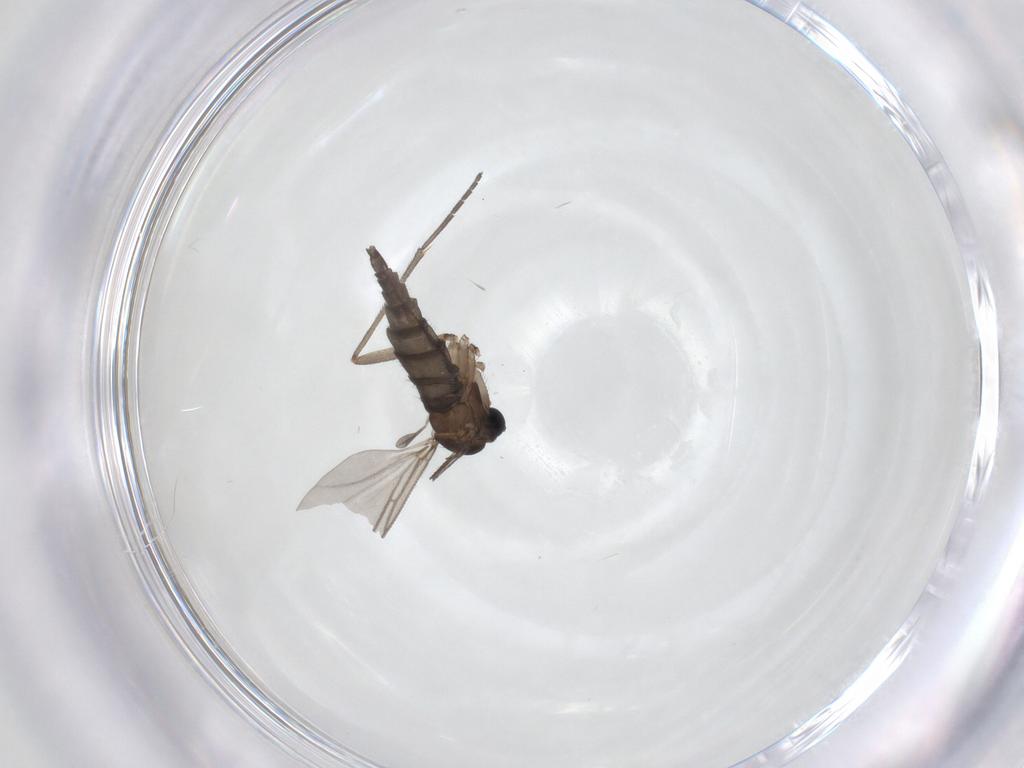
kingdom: Animalia
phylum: Arthropoda
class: Insecta
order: Diptera
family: Sciaridae
